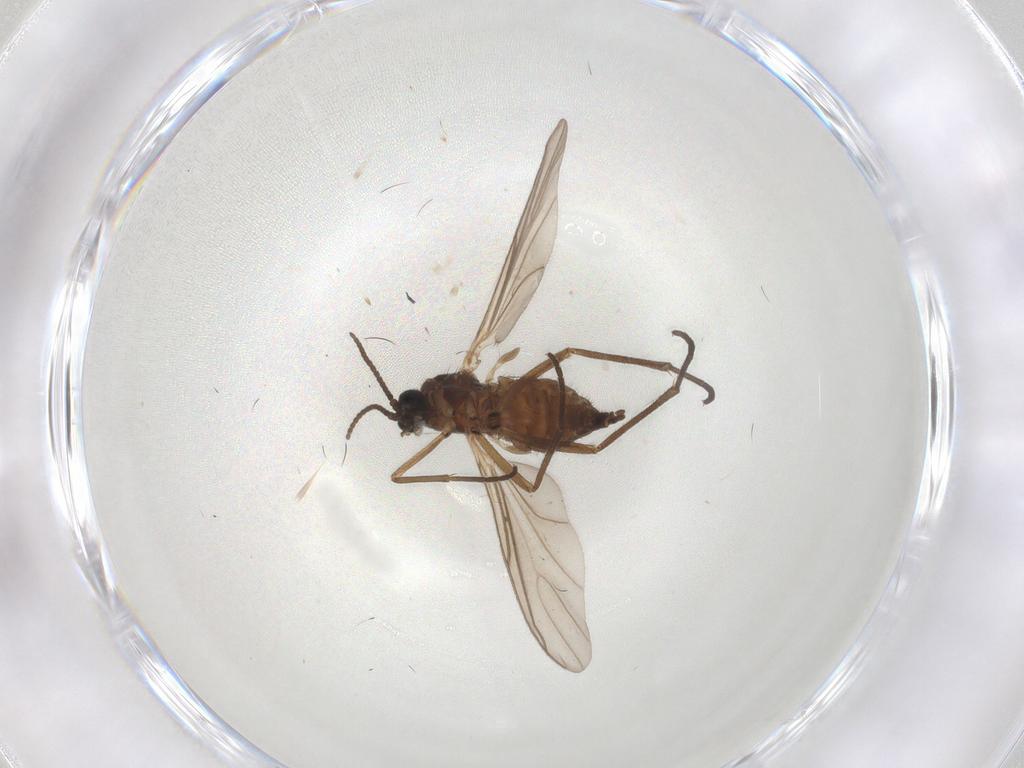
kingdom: Animalia
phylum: Arthropoda
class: Insecta
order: Diptera
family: Sciaridae
